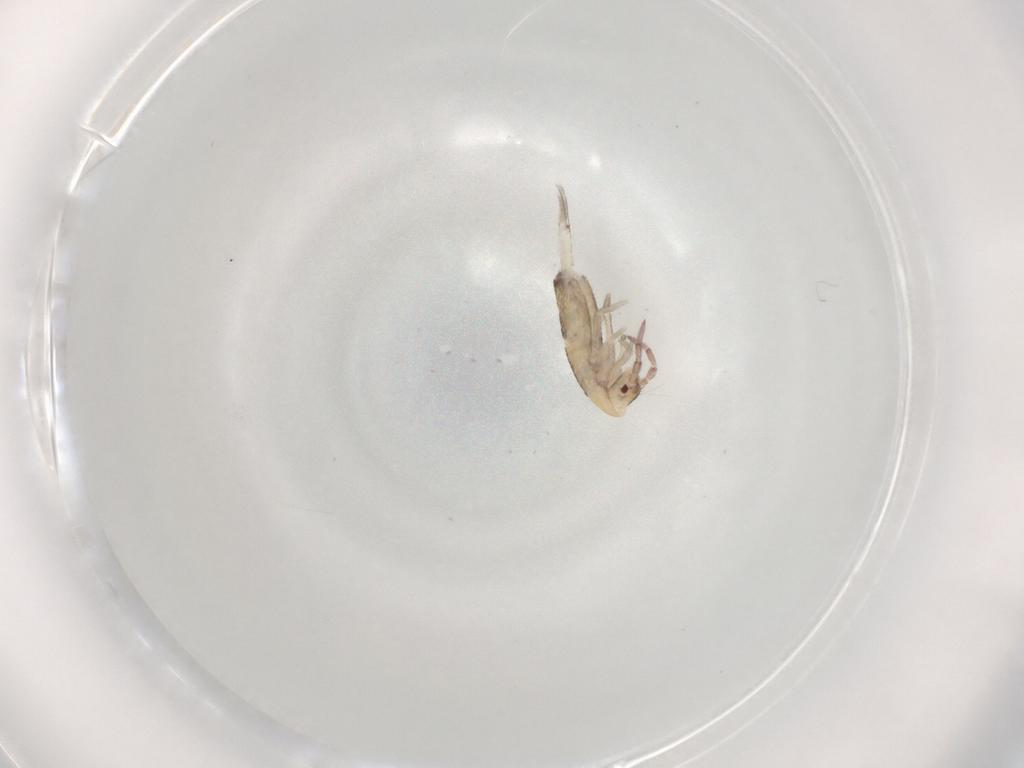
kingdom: Animalia
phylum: Arthropoda
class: Collembola
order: Entomobryomorpha
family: Entomobryidae
